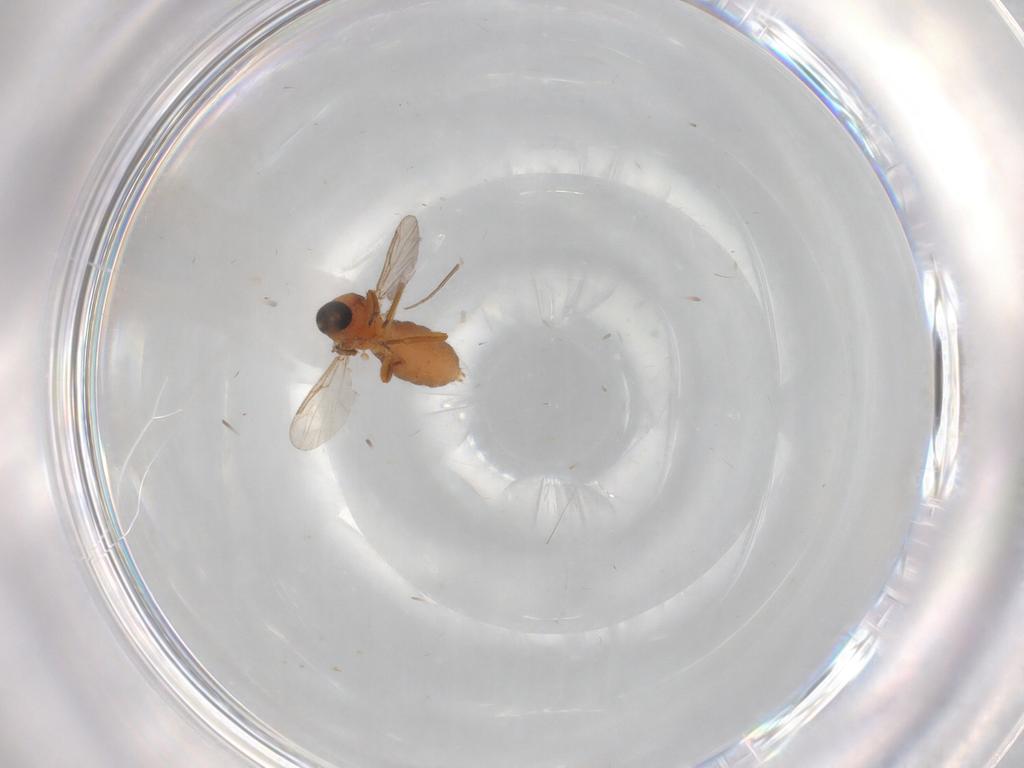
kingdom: Animalia
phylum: Arthropoda
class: Insecta
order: Diptera
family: Ceratopogonidae
